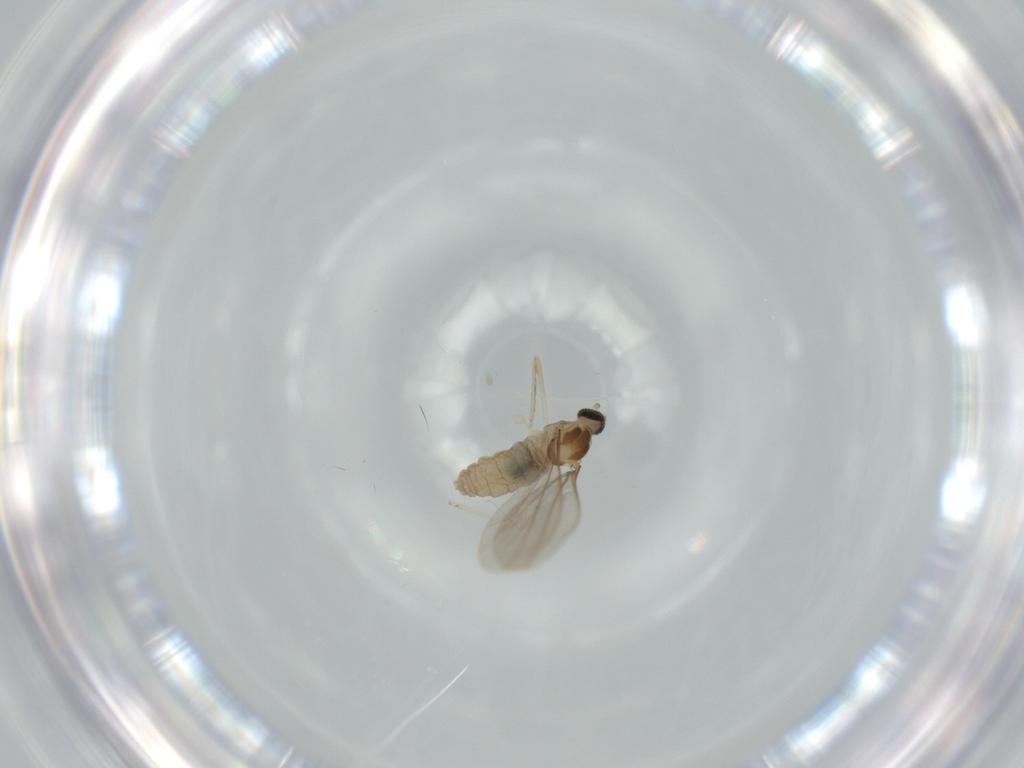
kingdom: Animalia
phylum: Arthropoda
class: Insecta
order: Diptera
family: Cecidomyiidae
